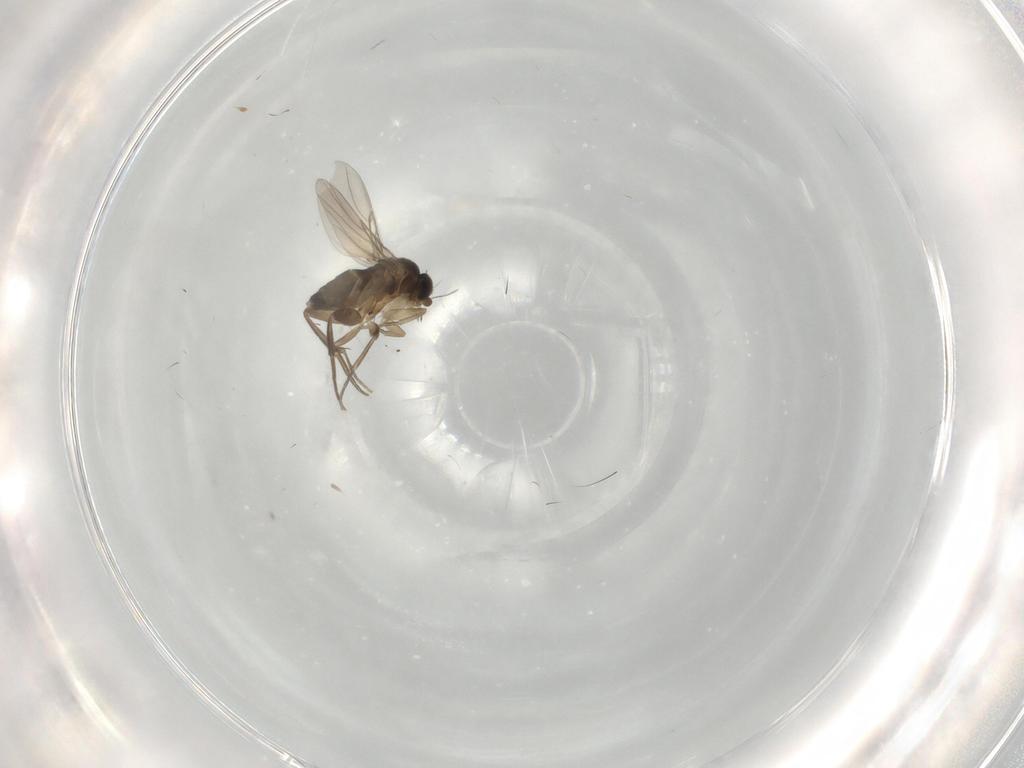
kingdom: Animalia
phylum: Arthropoda
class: Insecta
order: Diptera
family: Phoridae
